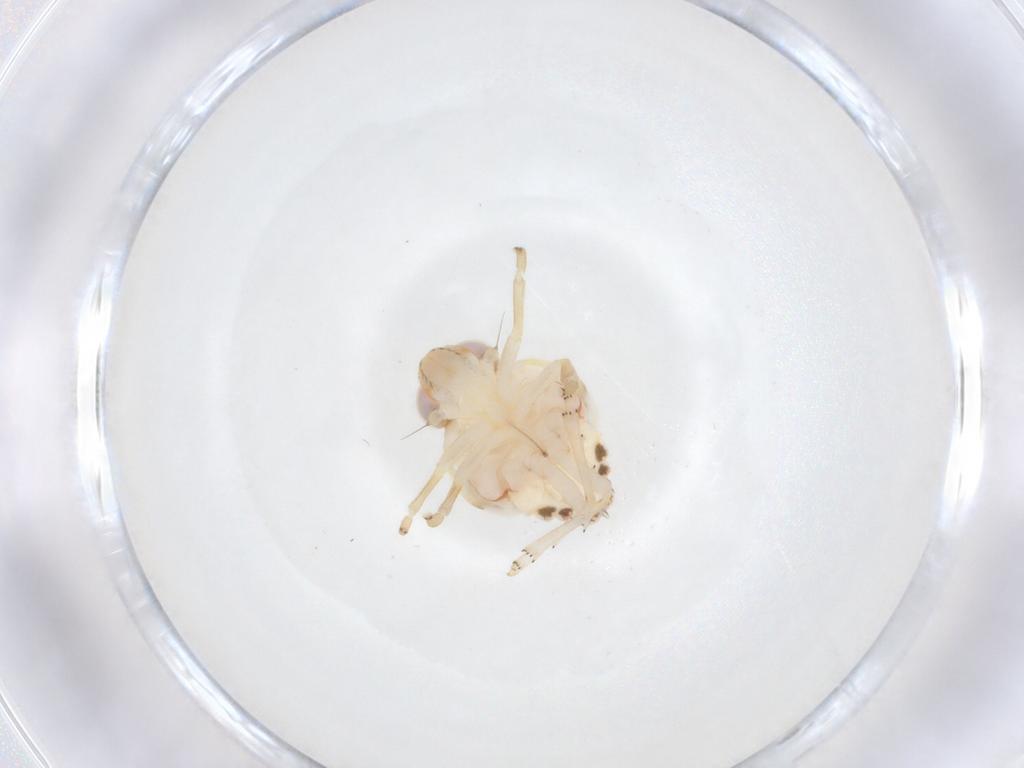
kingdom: Animalia
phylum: Arthropoda
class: Insecta
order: Hemiptera
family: Nogodinidae
